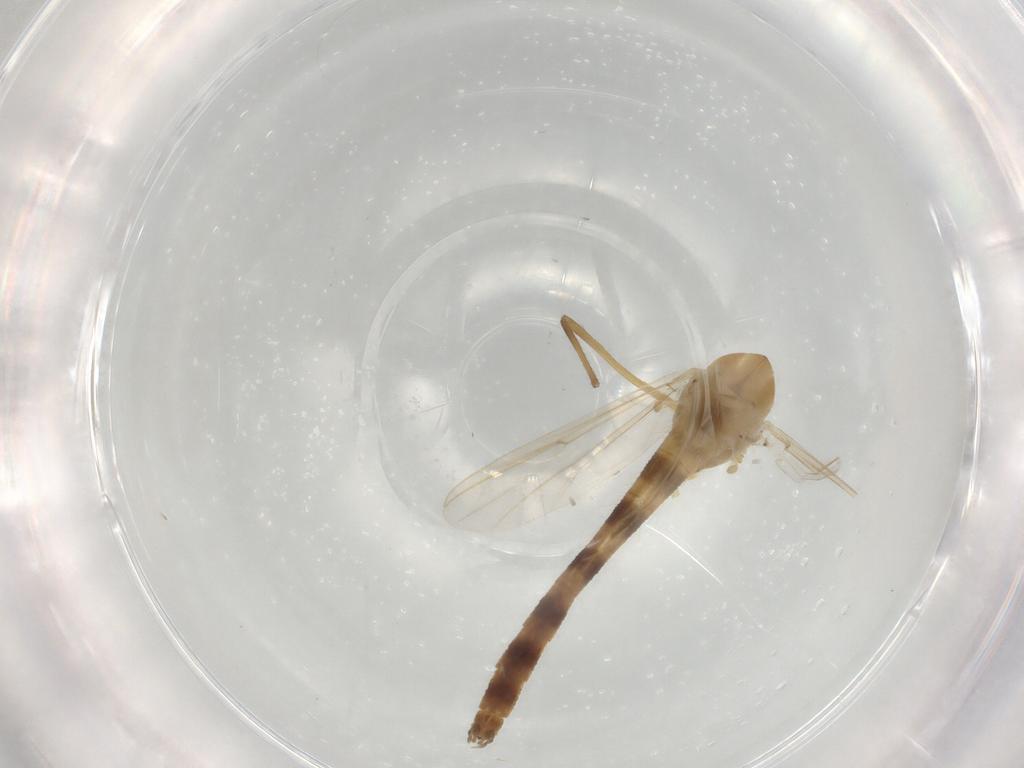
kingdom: Animalia
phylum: Arthropoda
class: Insecta
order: Diptera
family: Chironomidae
